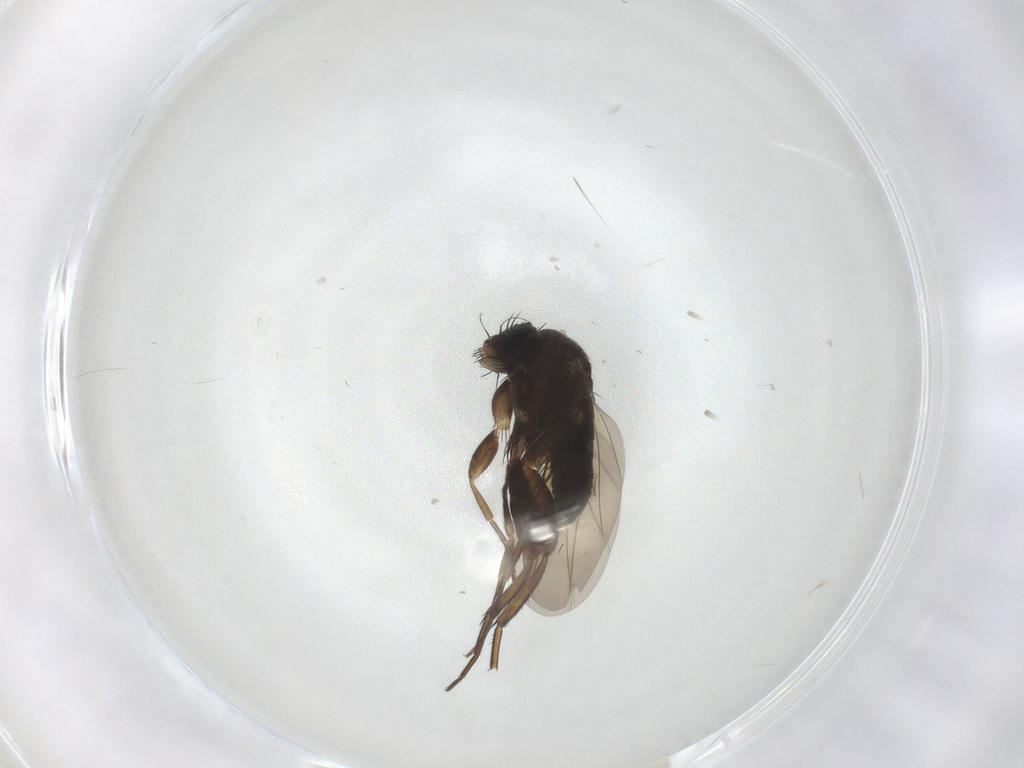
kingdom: Animalia
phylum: Arthropoda
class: Insecta
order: Diptera
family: Phoridae
